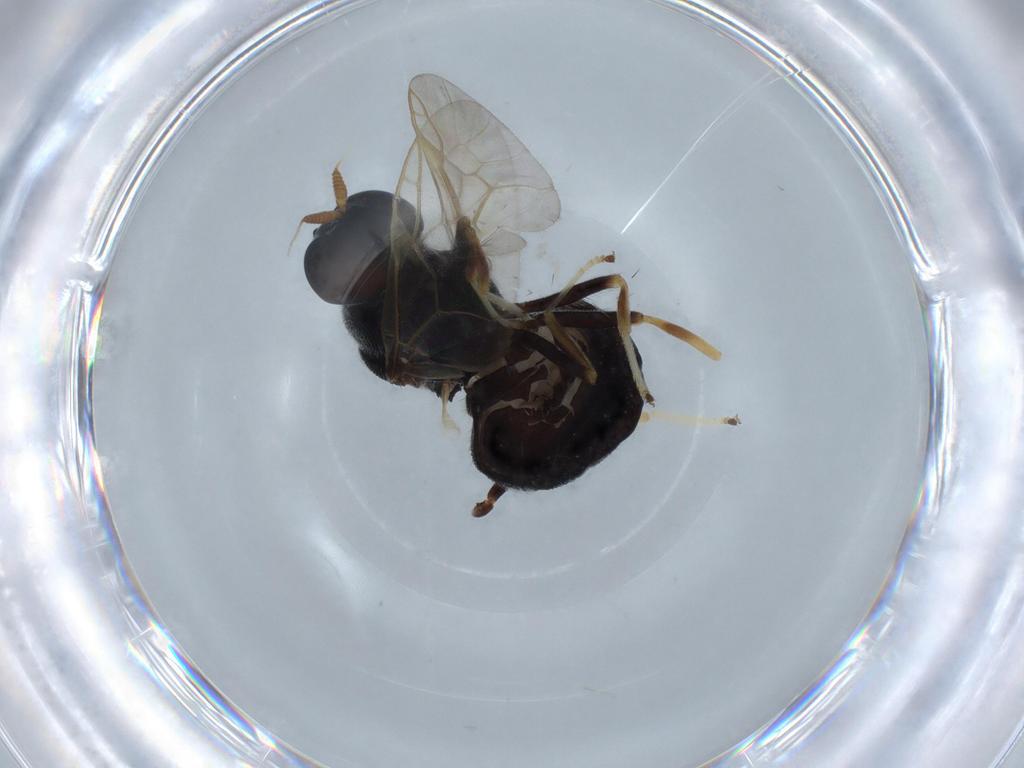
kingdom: Animalia
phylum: Arthropoda
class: Insecta
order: Diptera
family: Stratiomyidae
